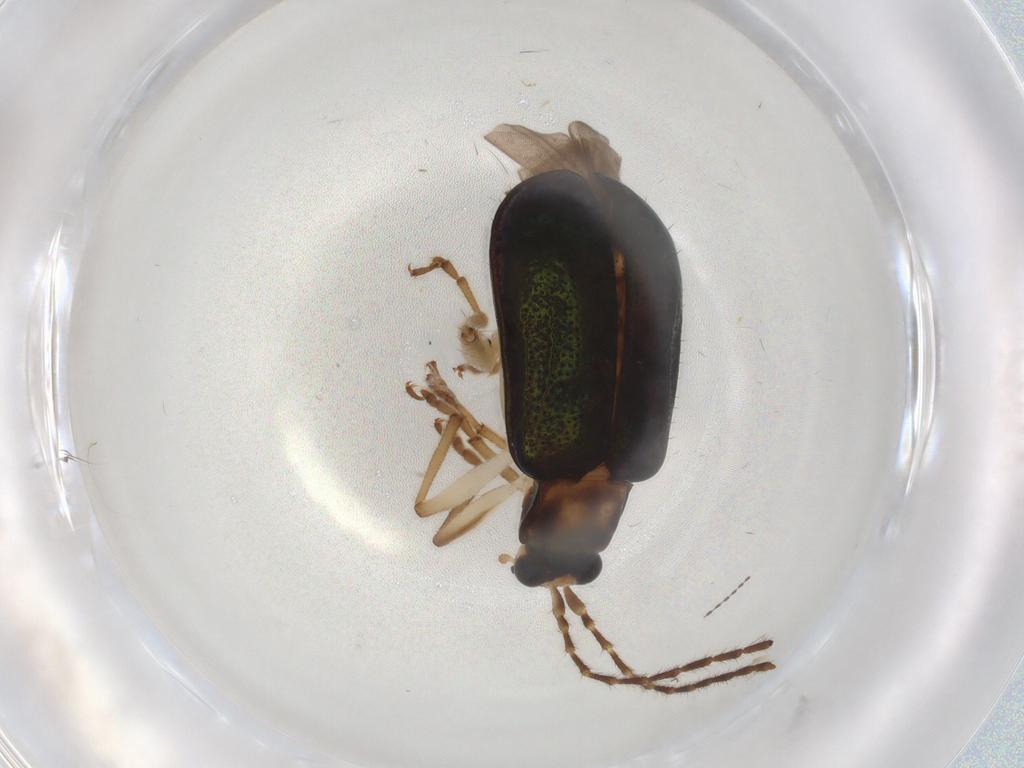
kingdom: Animalia
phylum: Arthropoda
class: Insecta
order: Coleoptera
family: Chrysomelidae
